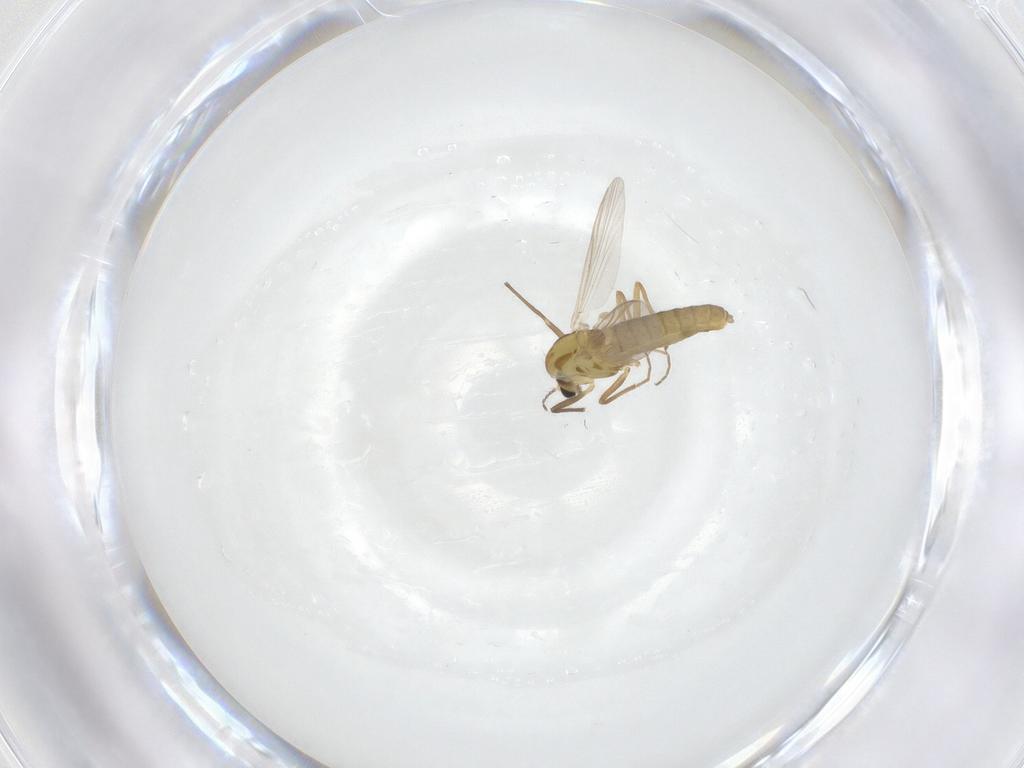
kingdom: Animalia
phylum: Arthropoda
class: Insecta
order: Diptera
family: Chironomidae
